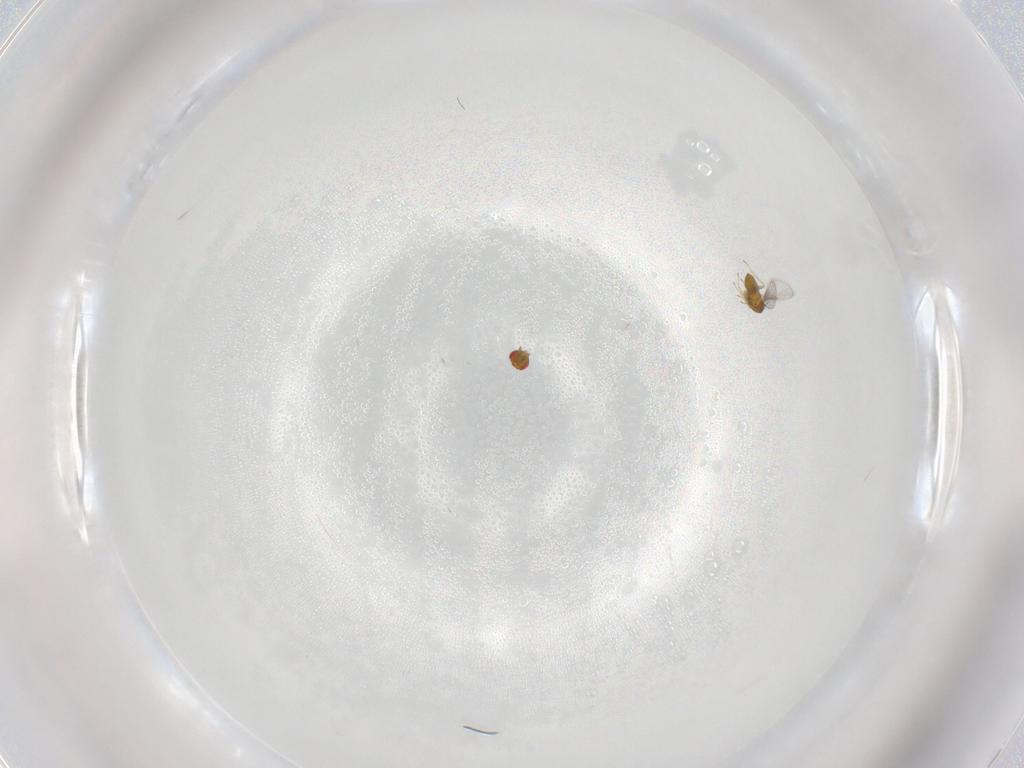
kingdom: Animalia
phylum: Arthropoda
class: Insecta
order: Hymenoptera
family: Trichogrammatidae
